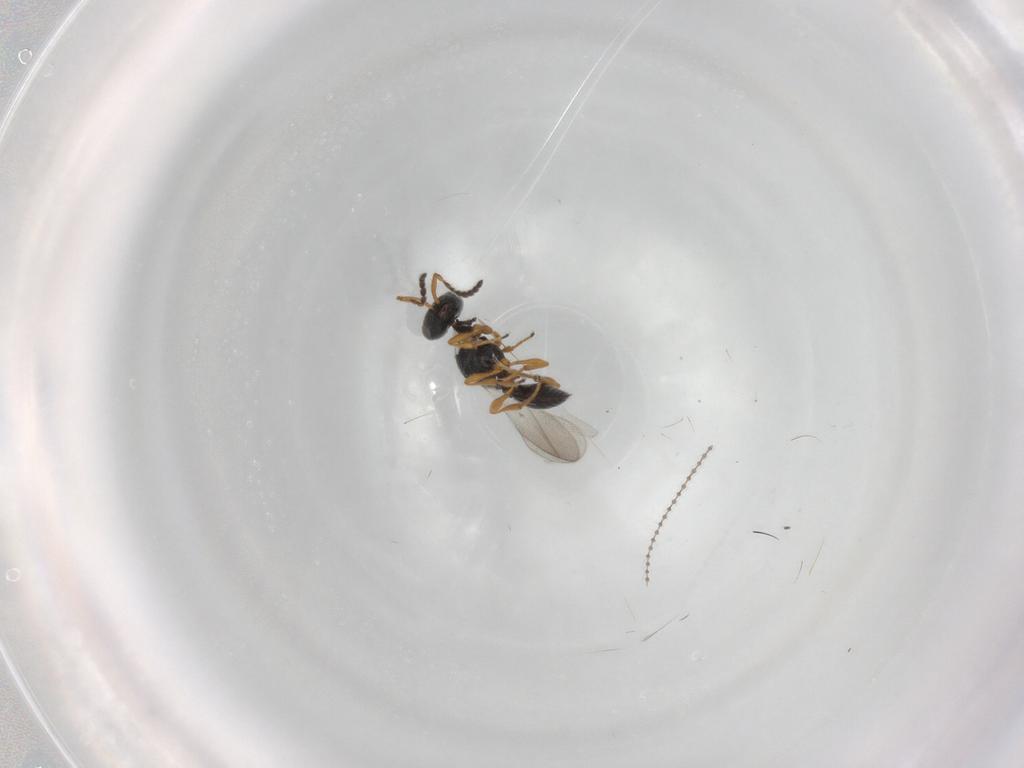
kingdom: Animalia
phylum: Arthropoda
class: Insecta
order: Hymenoptera
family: Platygastridae
